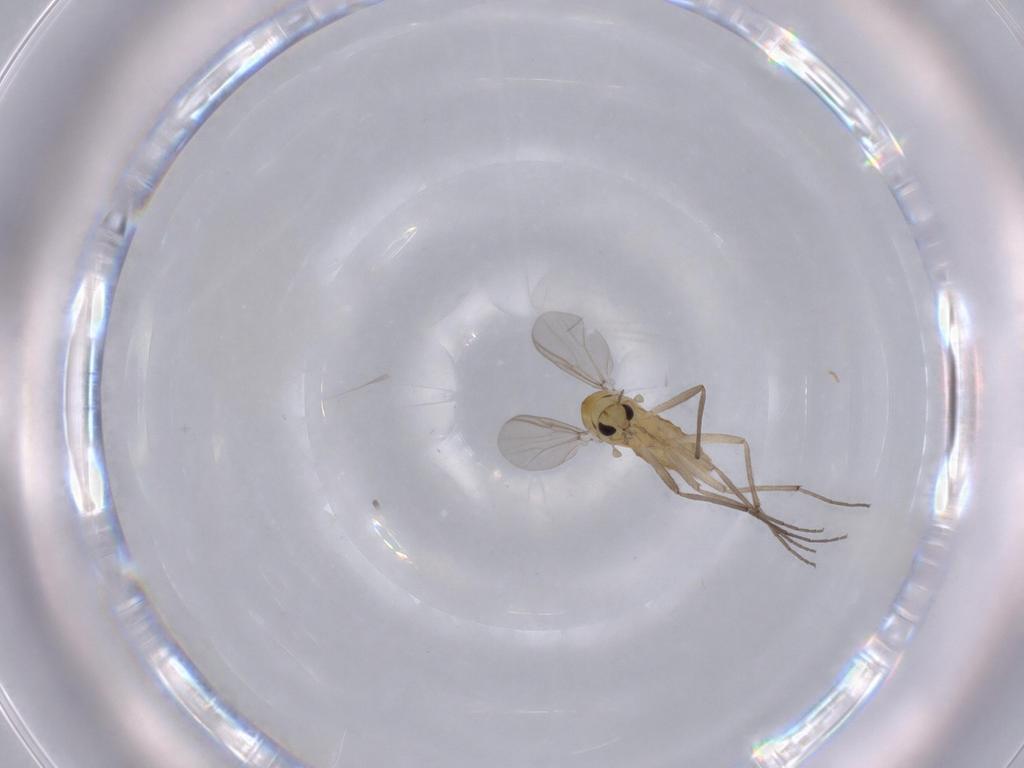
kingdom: Animalia
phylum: Arthropoda
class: Insecta
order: Diptera
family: Chironomidae
